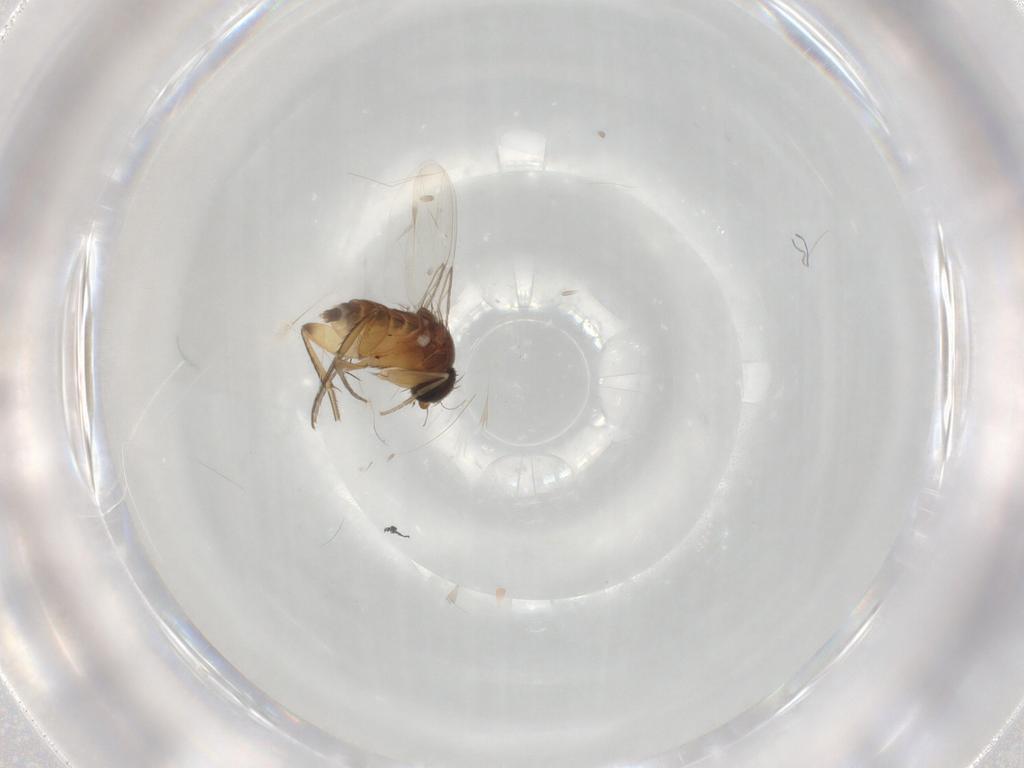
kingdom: Animalia
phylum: Arthropoda
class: Insecta
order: Diptera
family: Phoridae
